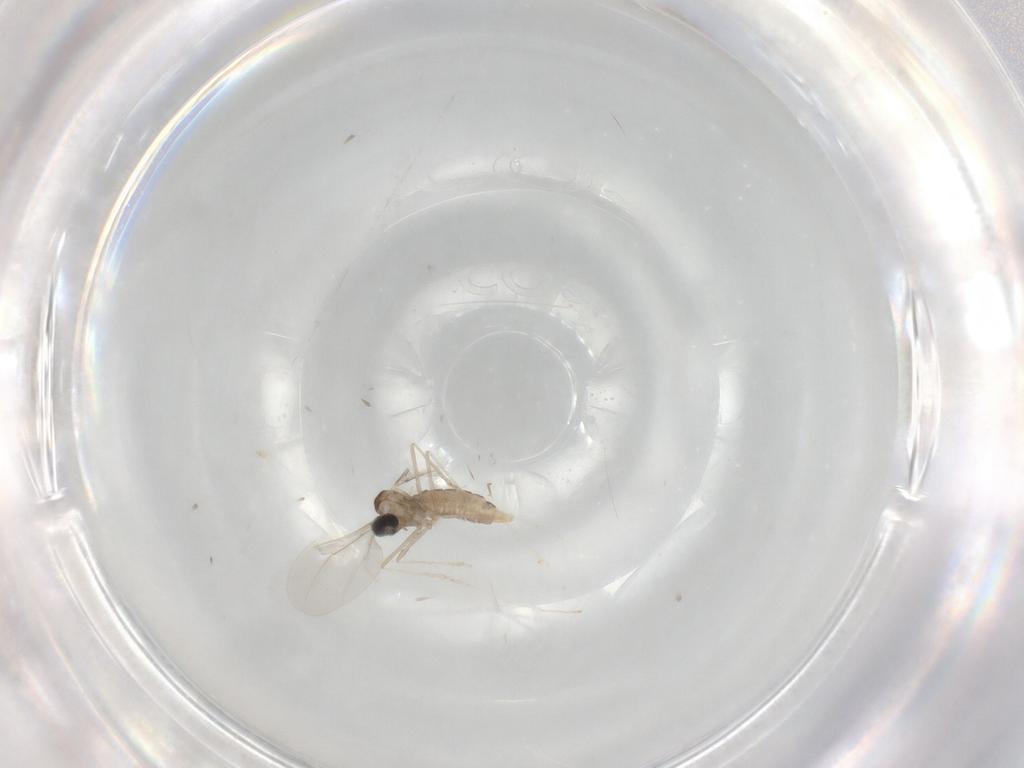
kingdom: Animalia
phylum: Arthropoda
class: Insecta
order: Diptera
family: Cecidomyiidae
